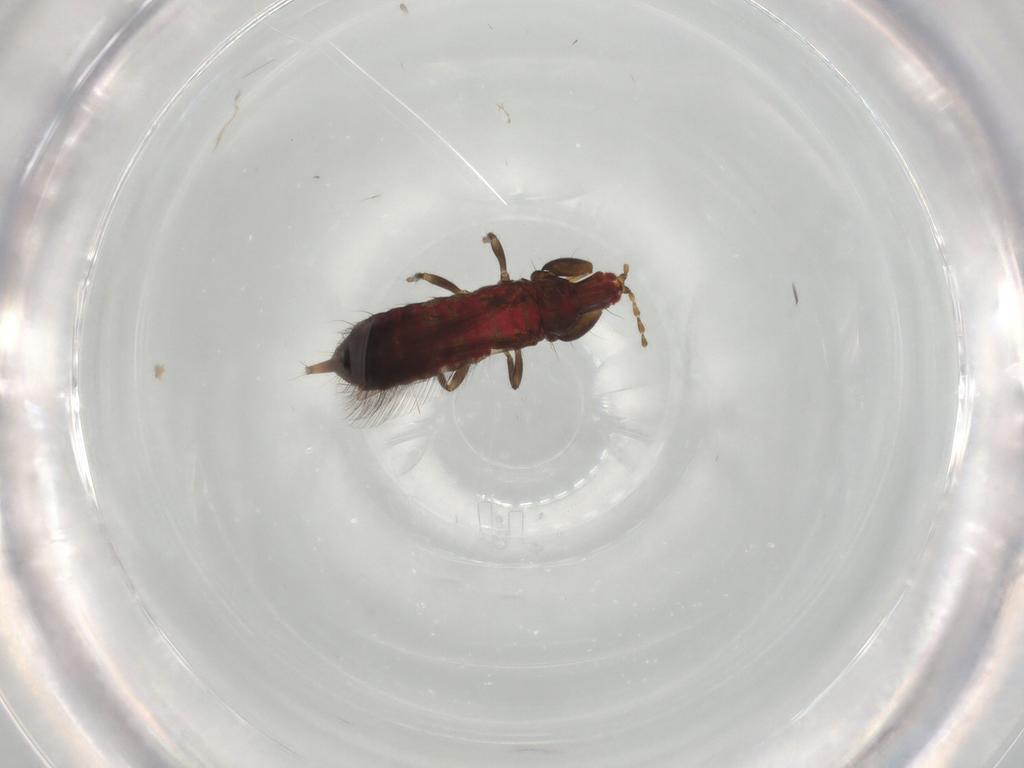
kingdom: Animalia
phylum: Arthropoda
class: Insecta
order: Thysanoptera
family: Phlaeothripidae
